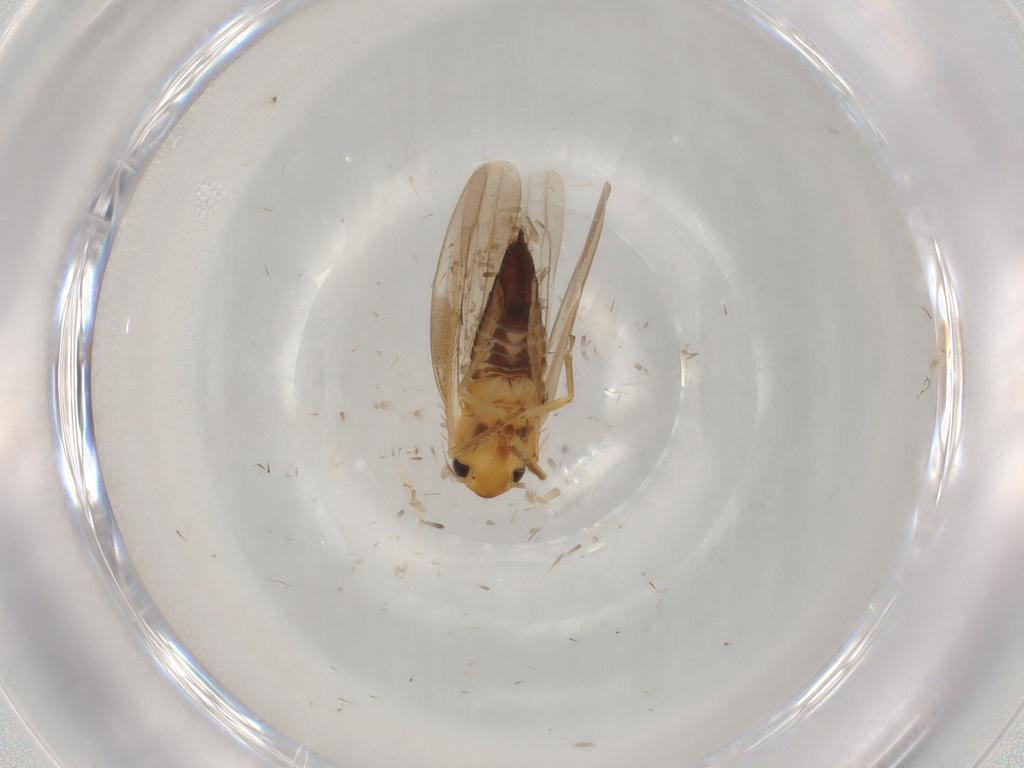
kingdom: Animalia
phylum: Arthropoda
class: Insecta
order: Hemiptera
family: Cicadellidae
